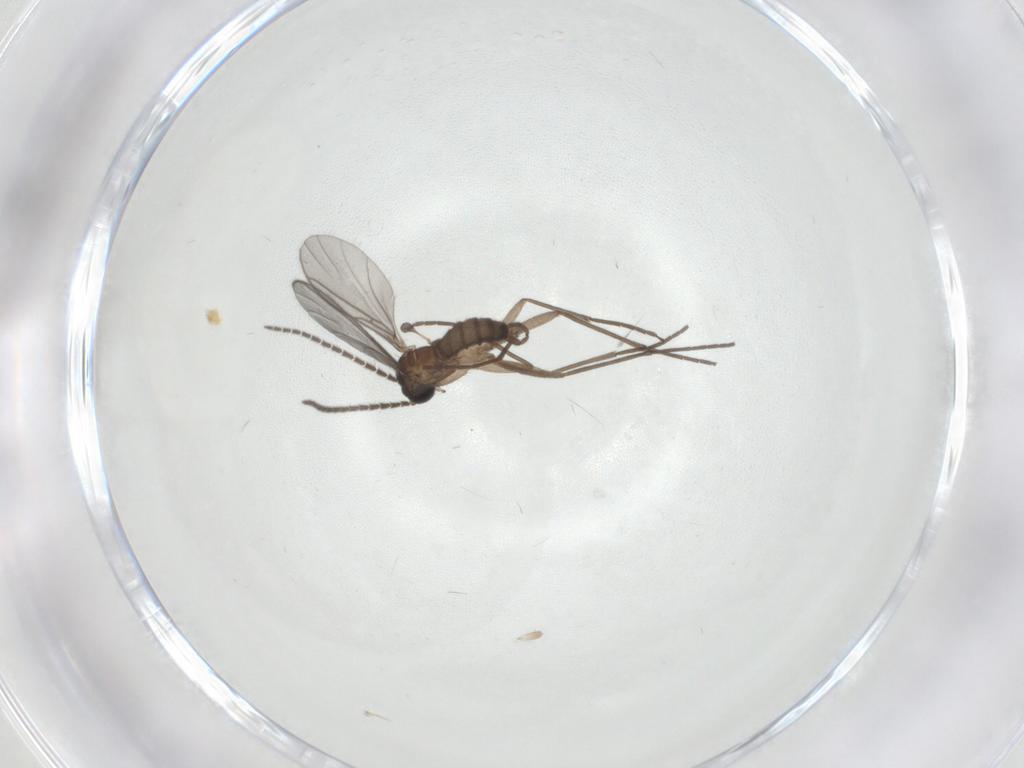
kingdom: Animalia
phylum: Arthropoda
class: Insecta
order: Diptera
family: Sciaridae
